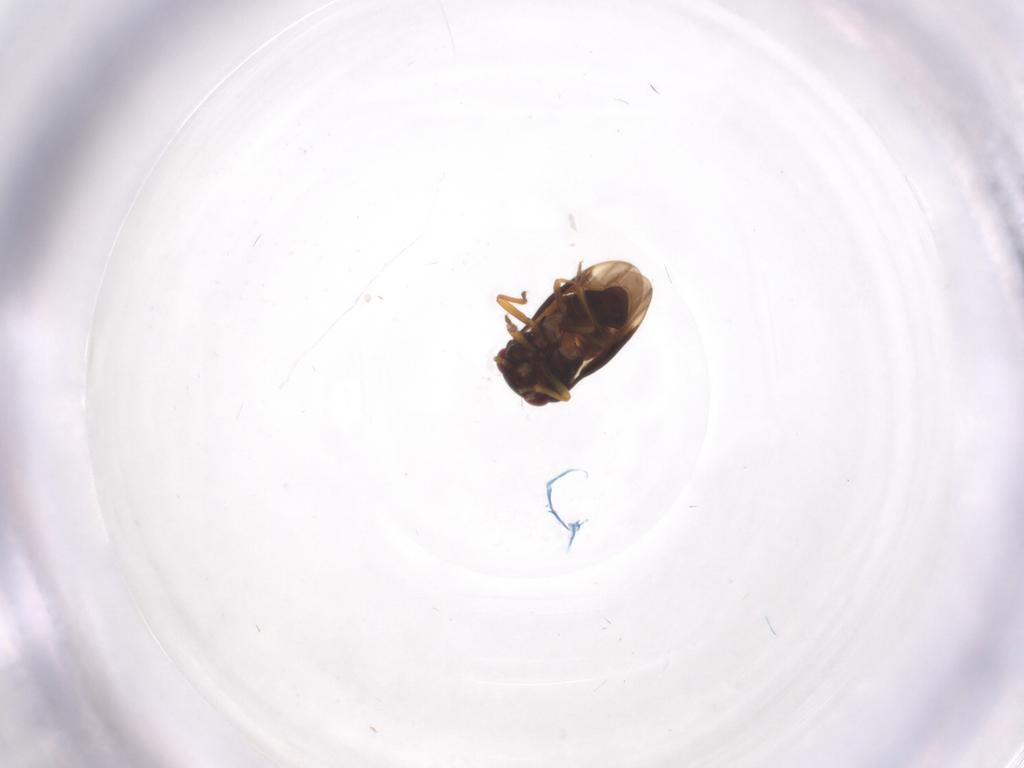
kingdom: Animalia
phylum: Arthropoda
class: Insecta
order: Hemiptera
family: Schizopteridae
